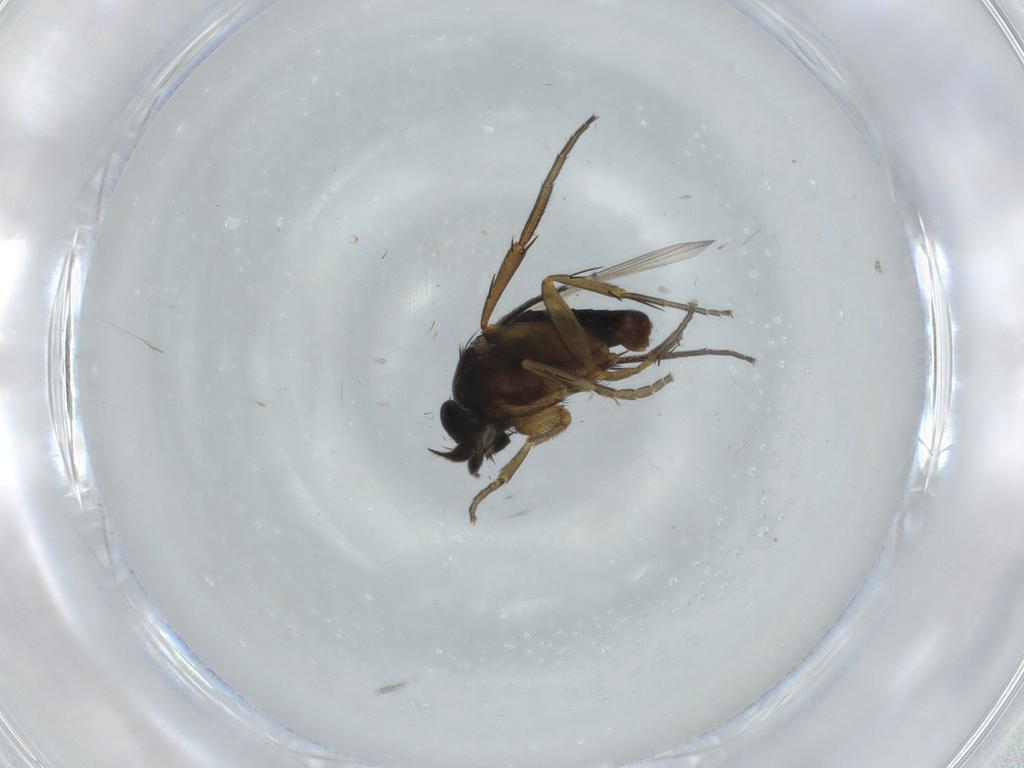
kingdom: Animalia
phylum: Arthropoda
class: Insecta
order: Diptera
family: Phoridae
